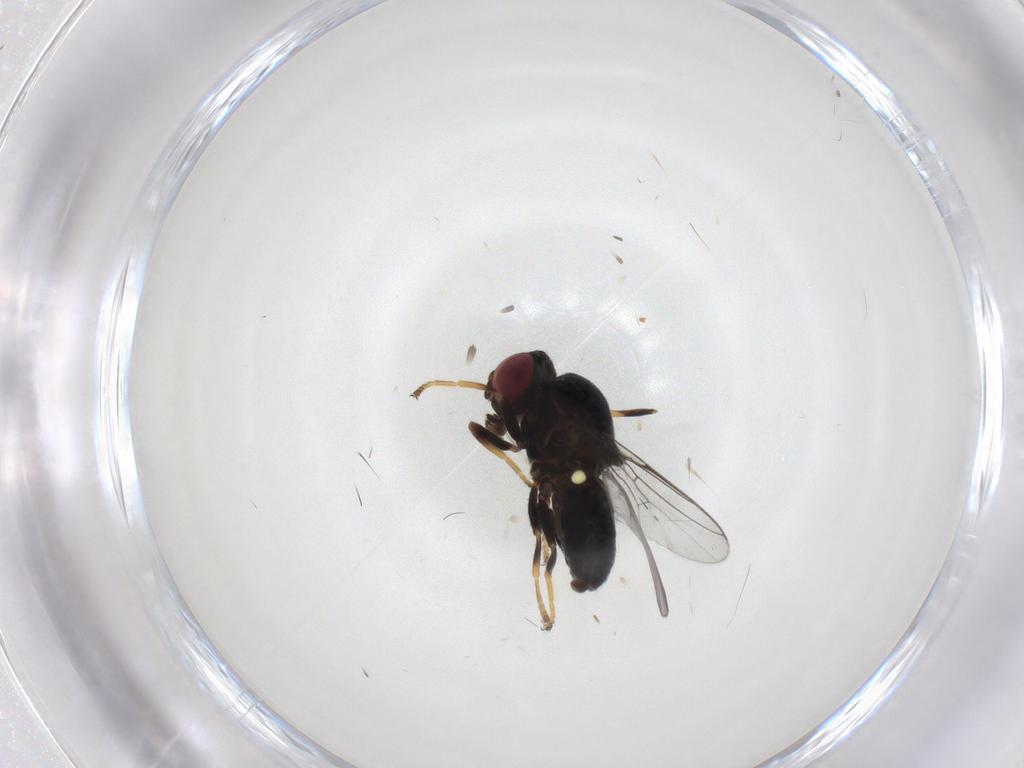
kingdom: Animalia
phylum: Arthropoda
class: Insecta
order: Diptera
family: Chloropidae
